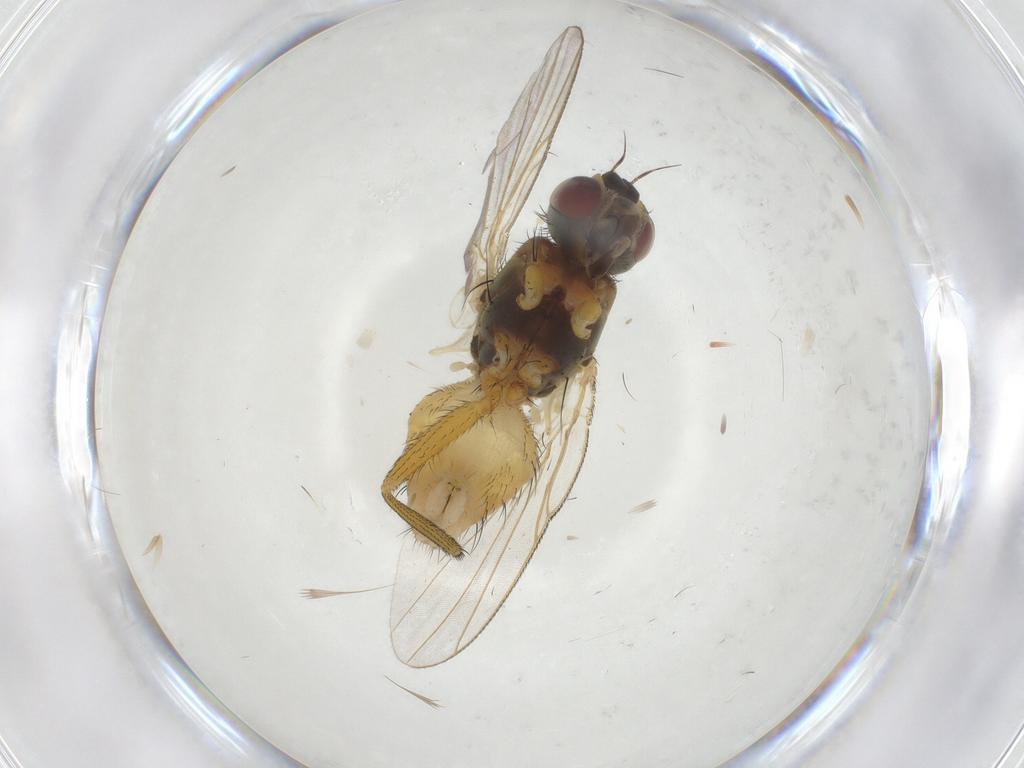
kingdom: Animalia
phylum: Arthropoda
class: Insecta
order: Diptera
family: Muscidae
